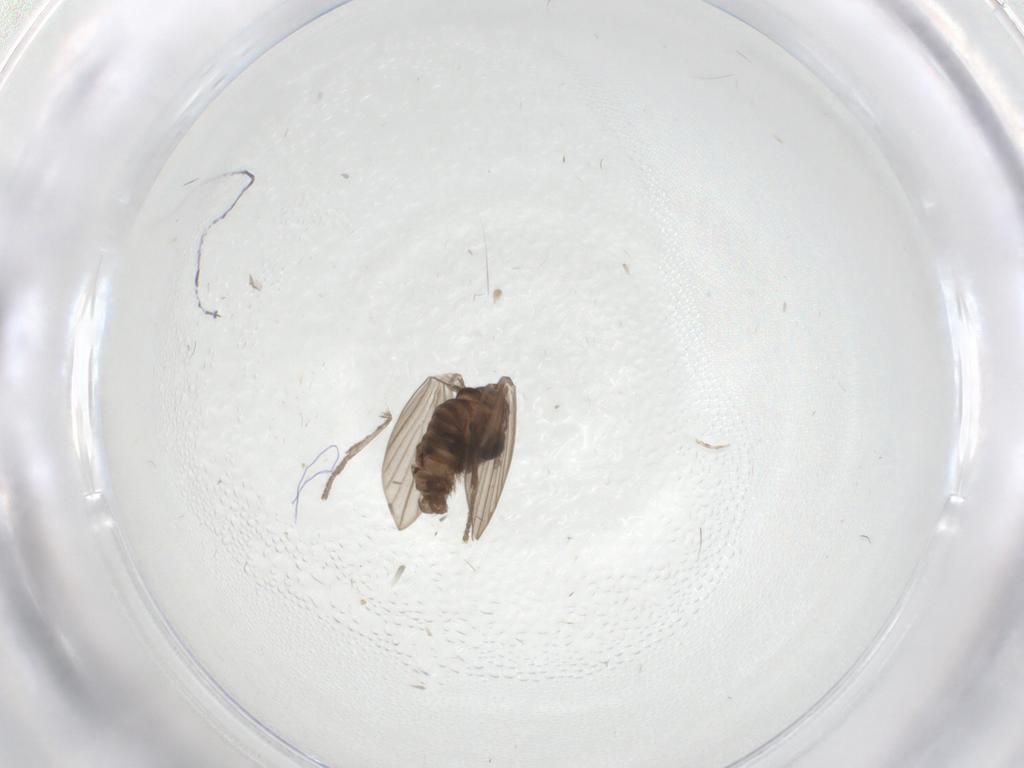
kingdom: Animalia
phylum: Arthropoda
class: Insecta
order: Diptera
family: Psychodidae
